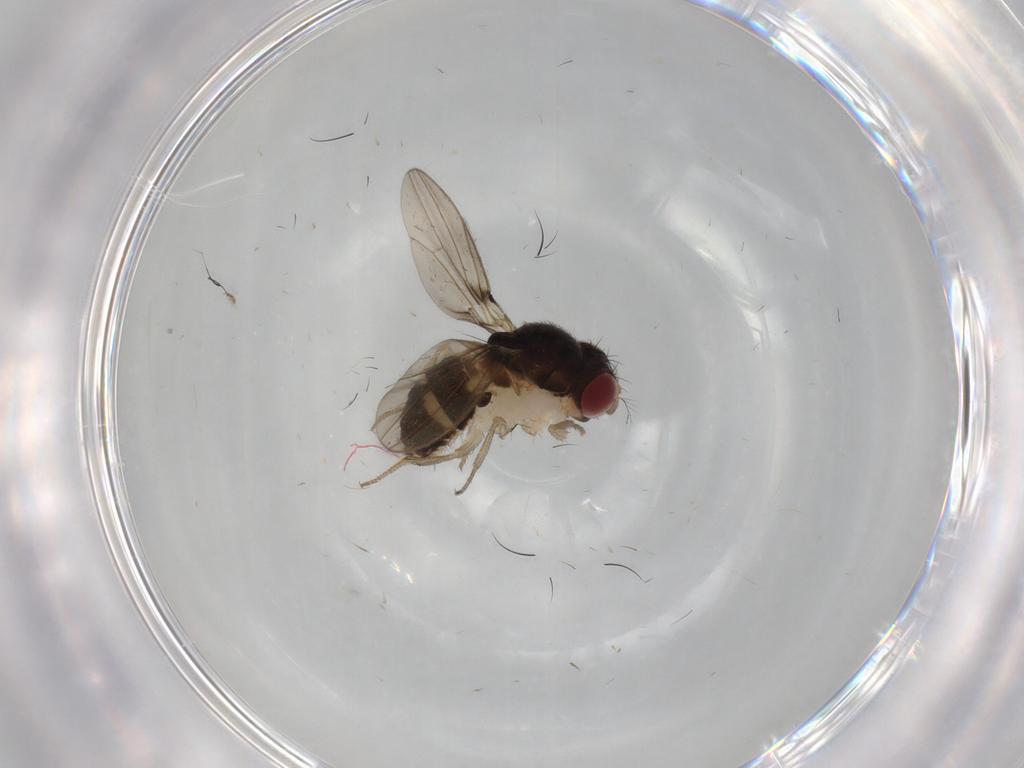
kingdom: Animalia
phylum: Arthropoda
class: Insecta
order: Diptera
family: Drosophilidae
